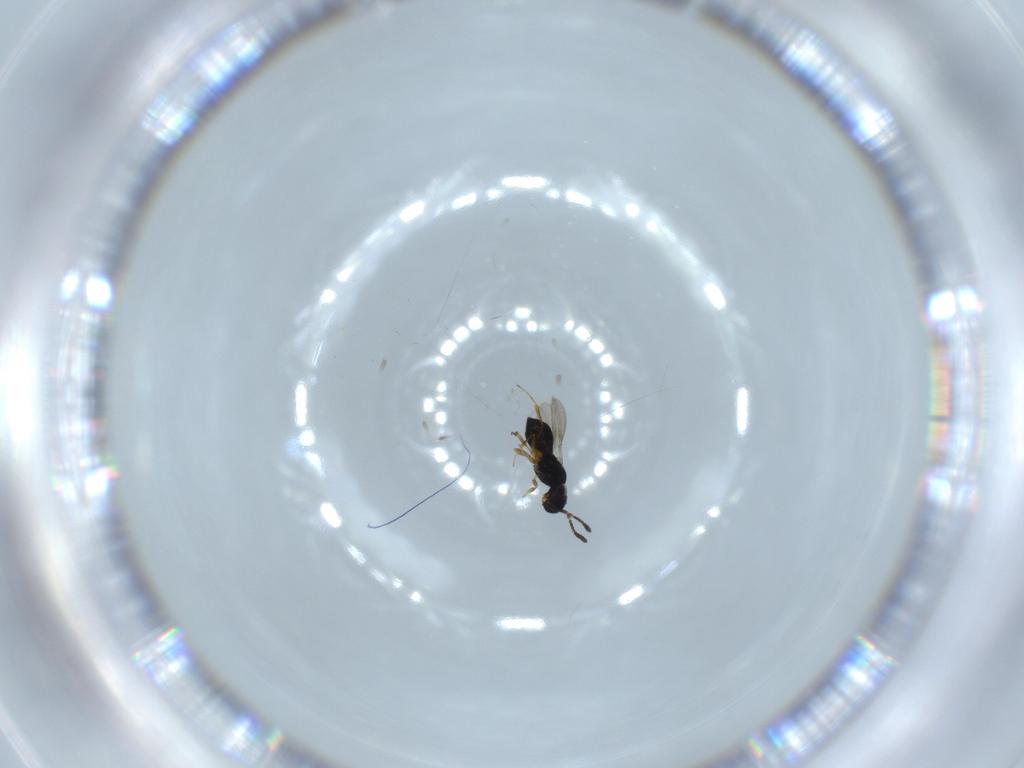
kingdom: Animalia
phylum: Arthropoda
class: Insecta
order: Hymenoptera
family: Scelionidae
